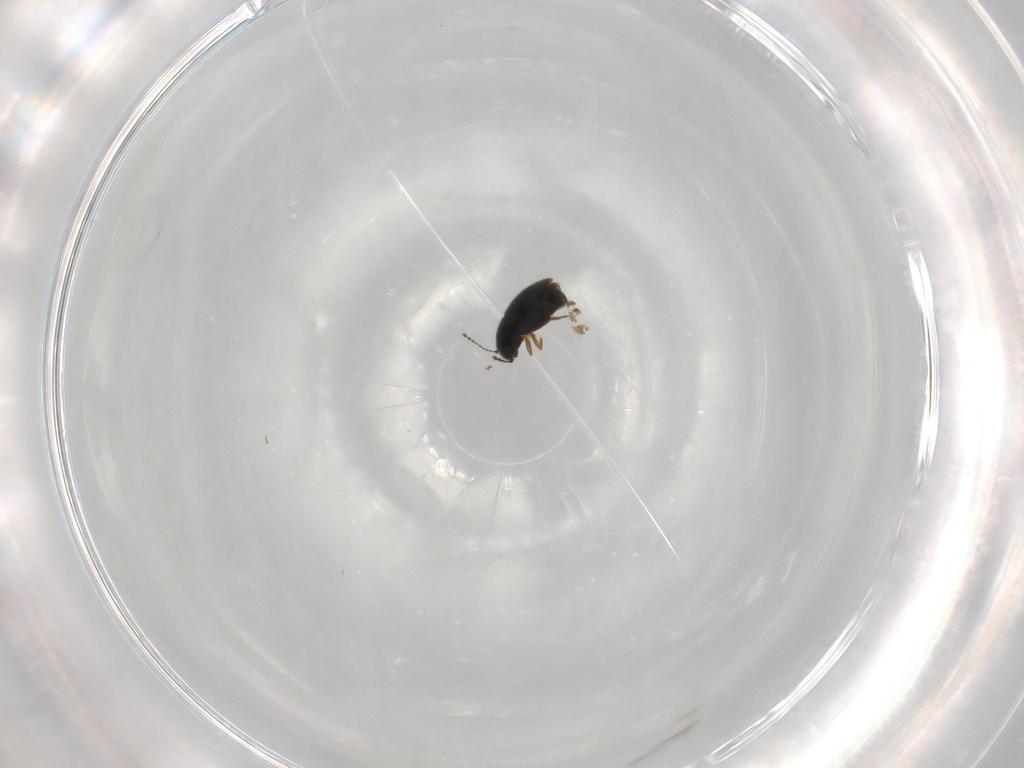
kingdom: Animalia
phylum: Arthropoda
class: Insecta
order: Coleoptera
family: Ptiliidae
